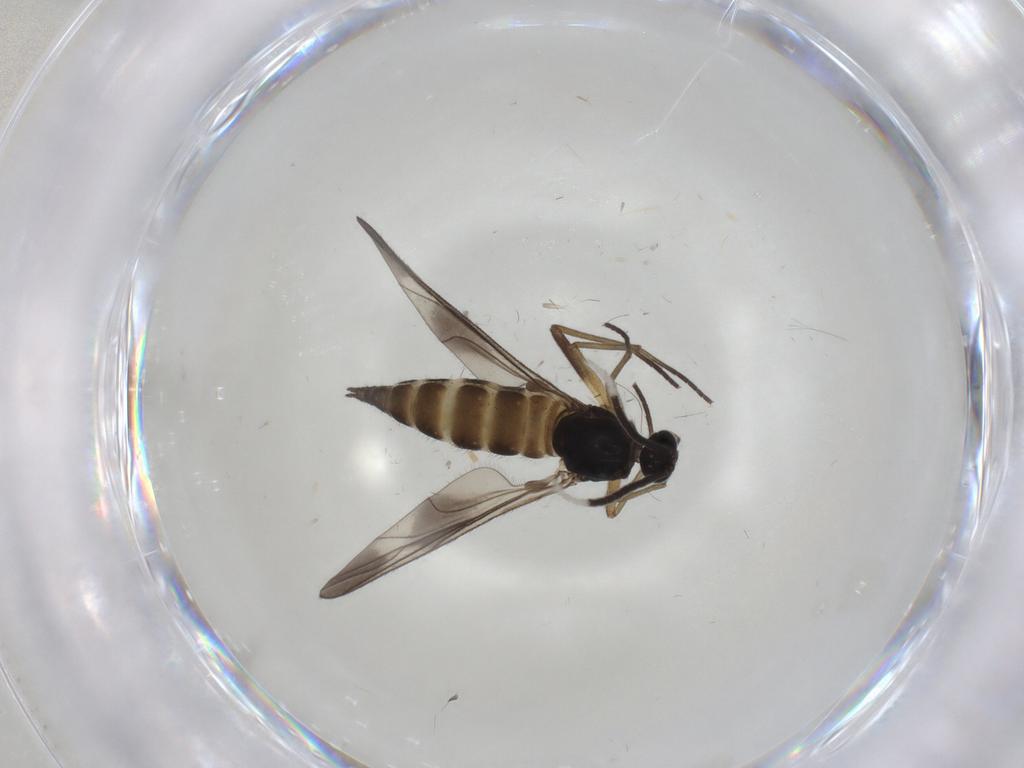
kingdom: Animalia
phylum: Arthropoda
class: Insecta
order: Diptera
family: Sciaridae
